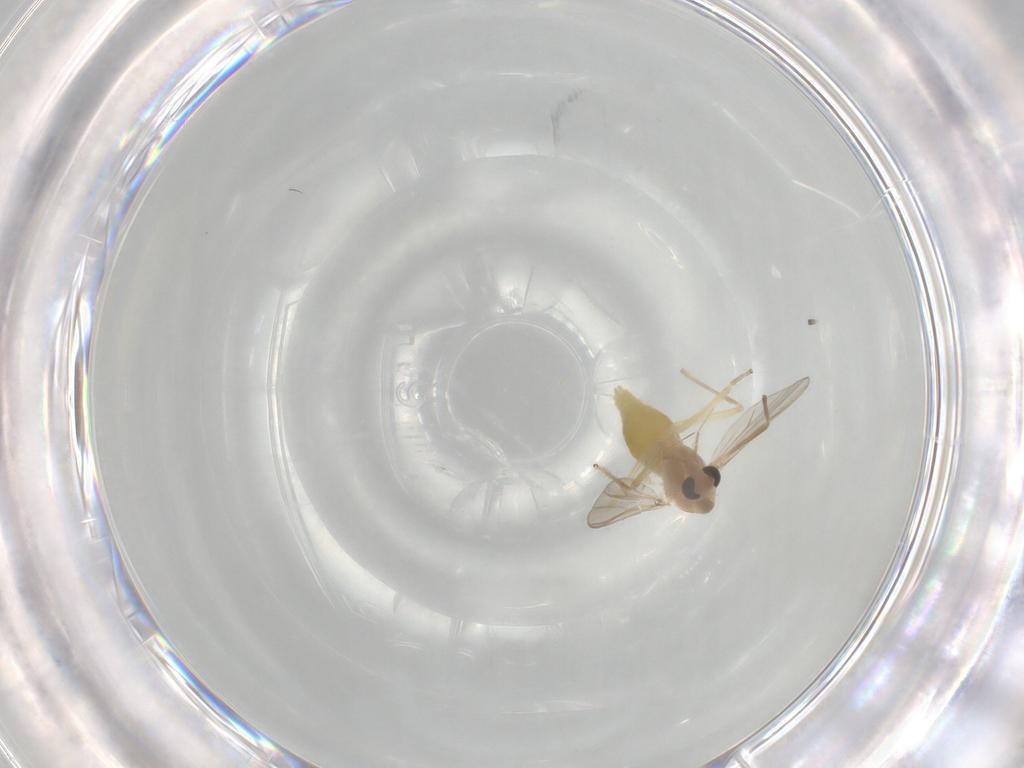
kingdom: Animalia
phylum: Arthropoda
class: Insecta
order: Diptera
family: Chironomidae
